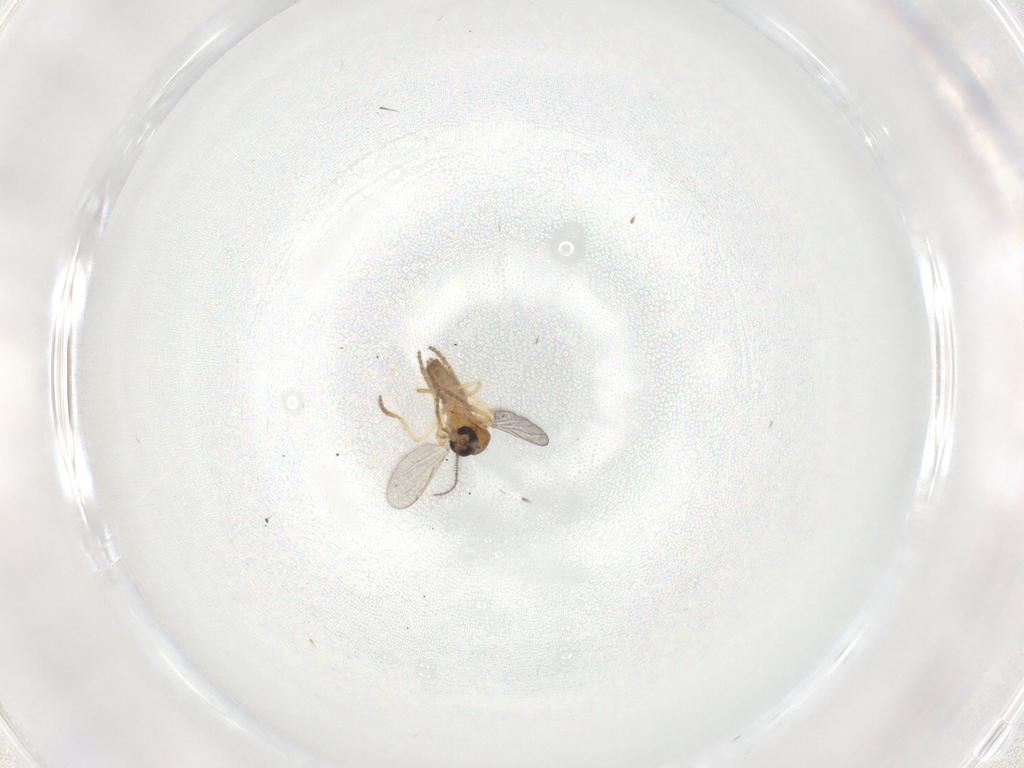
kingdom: Animalia
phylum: Arthropoda
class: Insecta
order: Diptera
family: Ceratopogonidae
